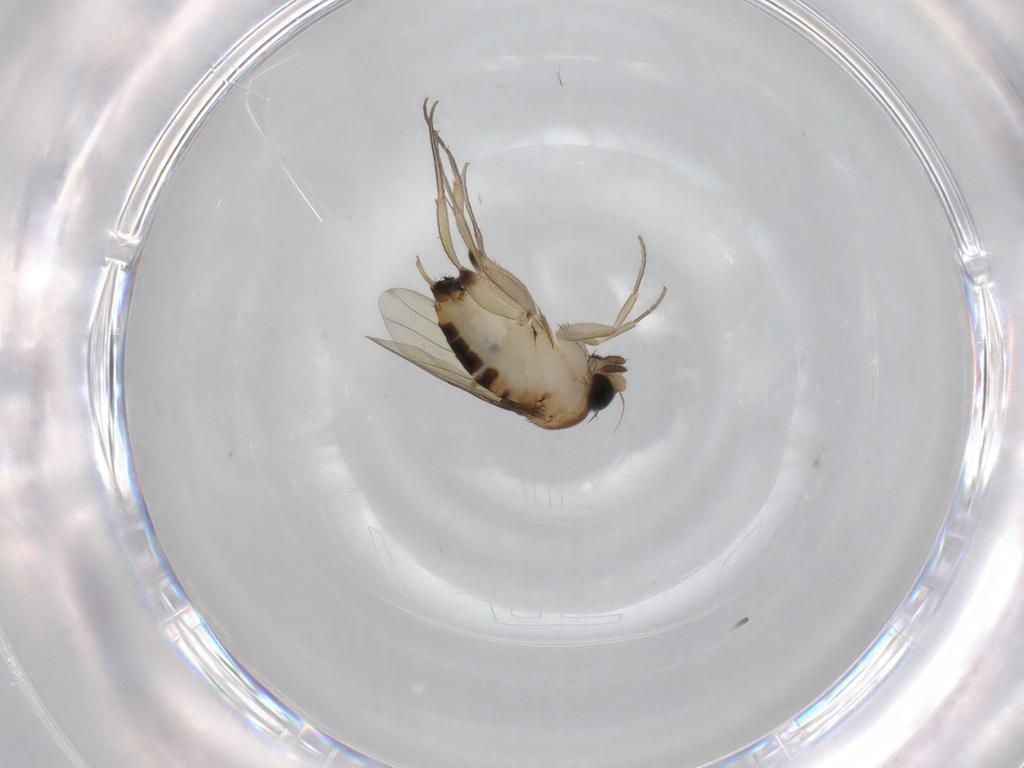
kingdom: Animalia
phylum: Arthropoda
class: Insecta
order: Diptera
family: Phoridae
